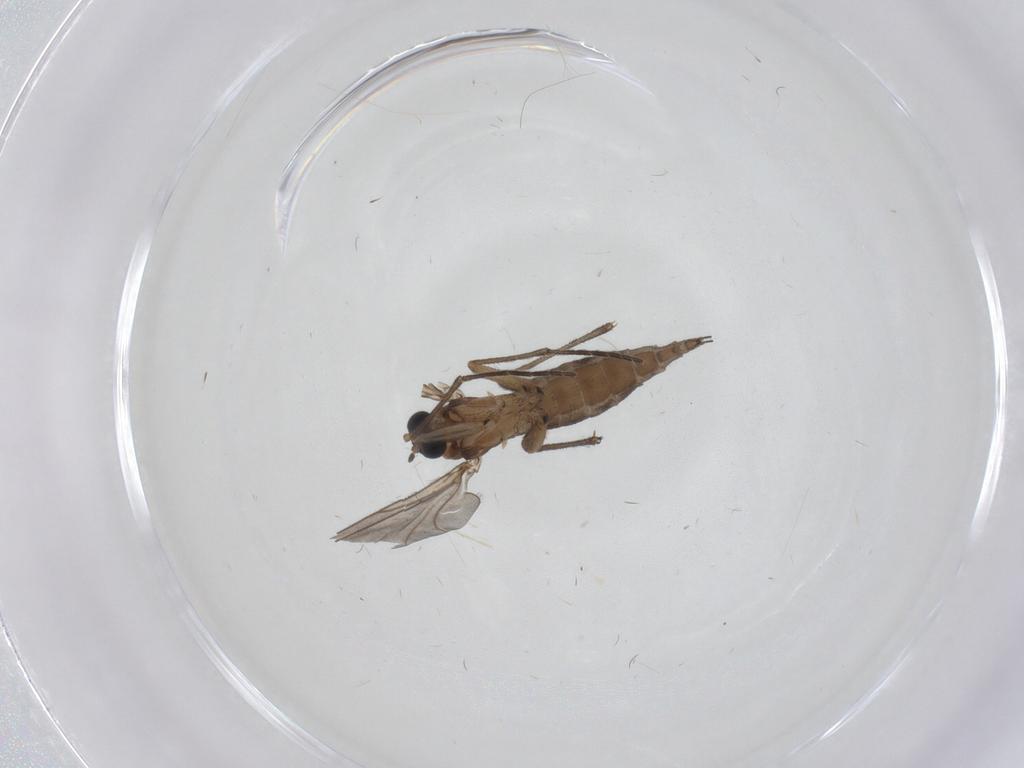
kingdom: Animalia
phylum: Arthropoda
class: Insecta
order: Diptera
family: Sciaridae
